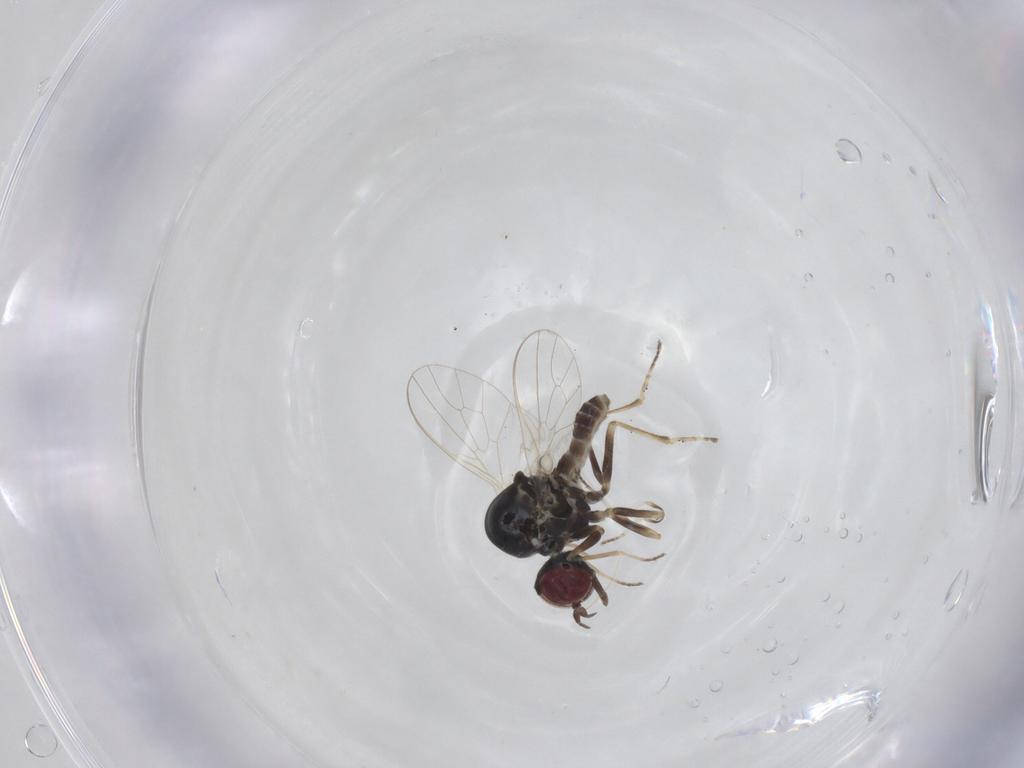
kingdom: Animalia
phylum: Arthropoda
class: Insecta
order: Diptera
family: Bombyliidae
